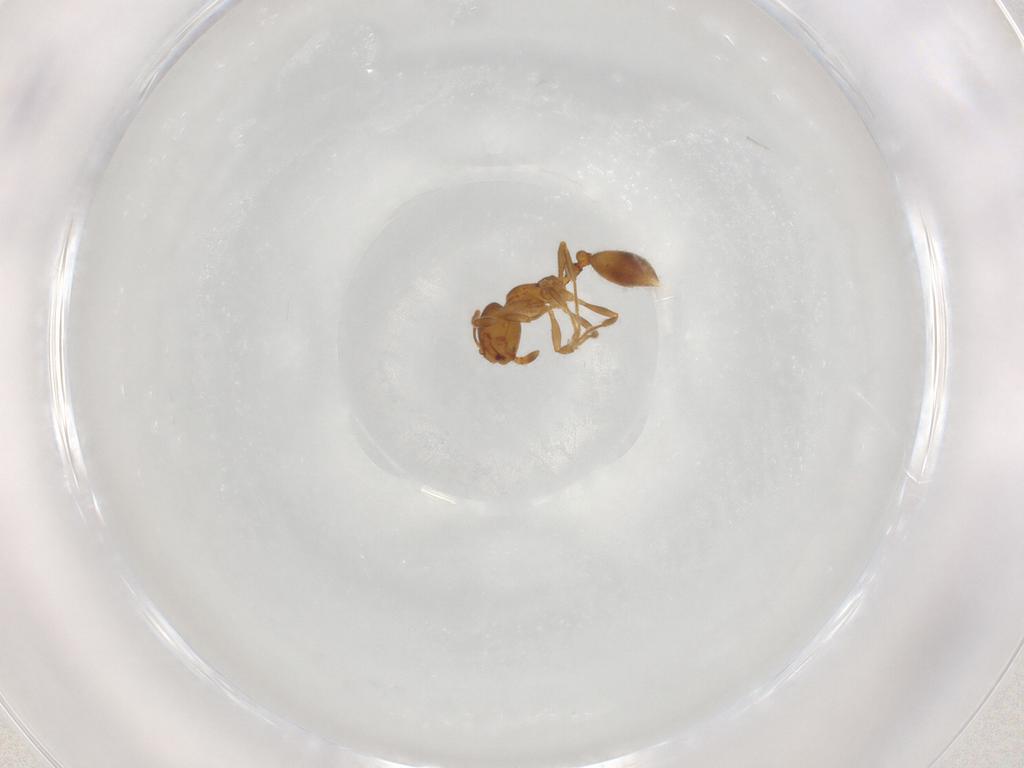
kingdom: Animalia
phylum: Arthropoda
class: Insecta
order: Hymenoptera
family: Formicidae
